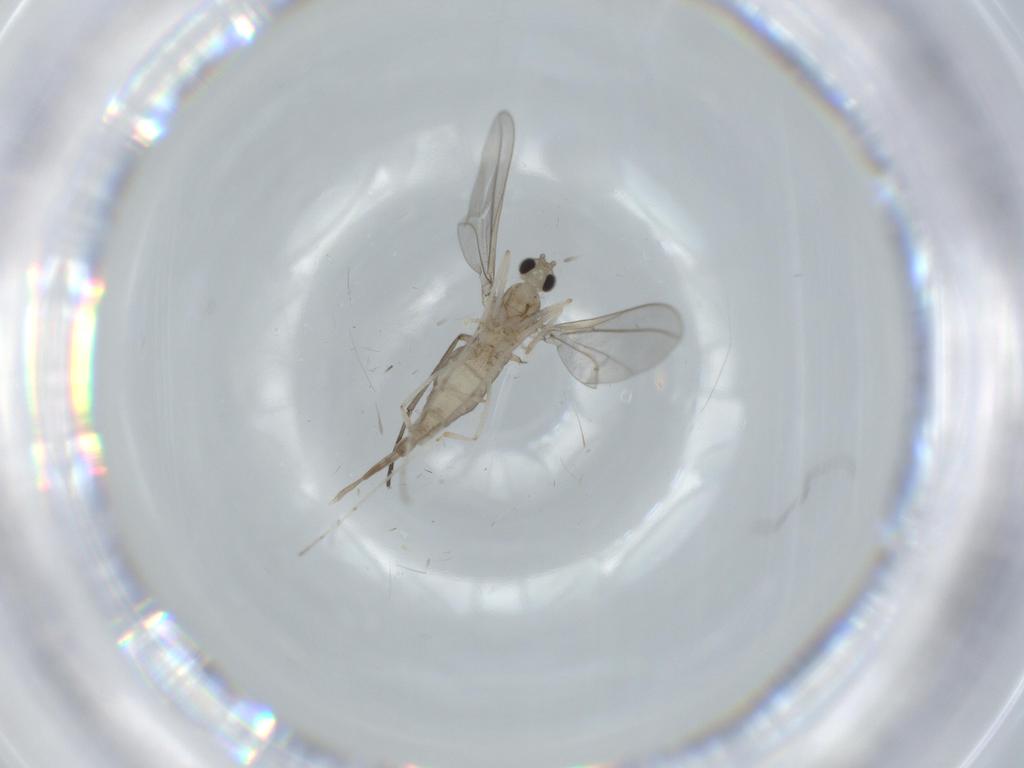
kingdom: Animalia
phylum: Arthropoda
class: Insecta
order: Diptera
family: Cecidomyiidae
